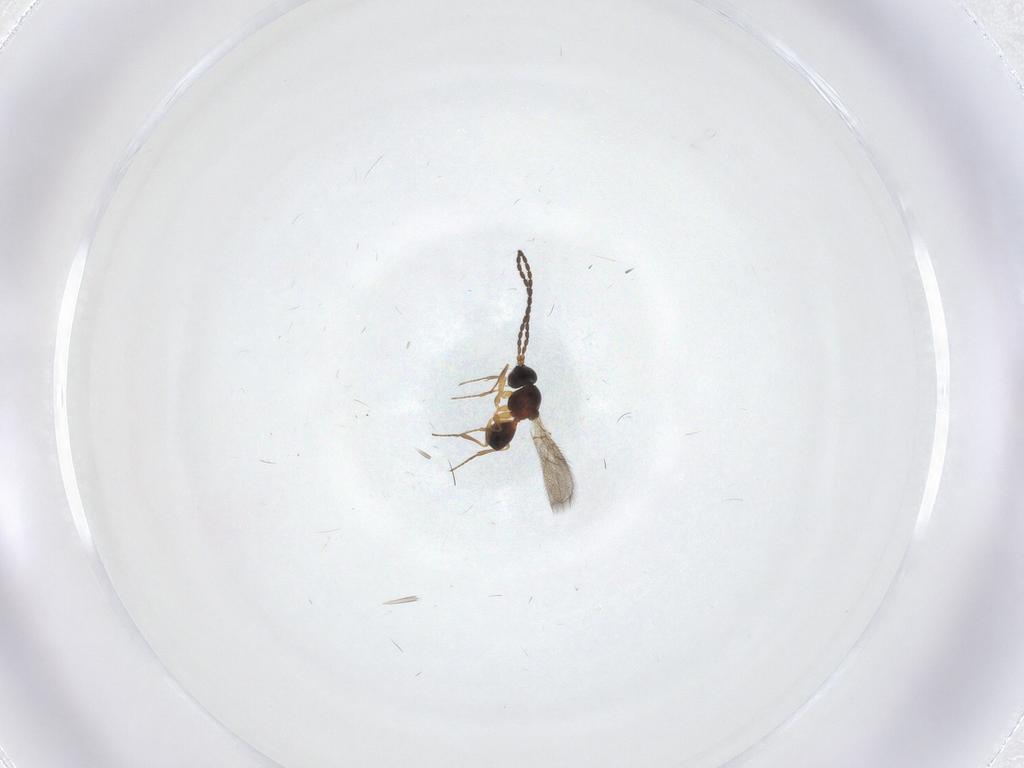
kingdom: Animalia
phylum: Arthropoda
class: Insecta
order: Hymenoptera
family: Figitidae
